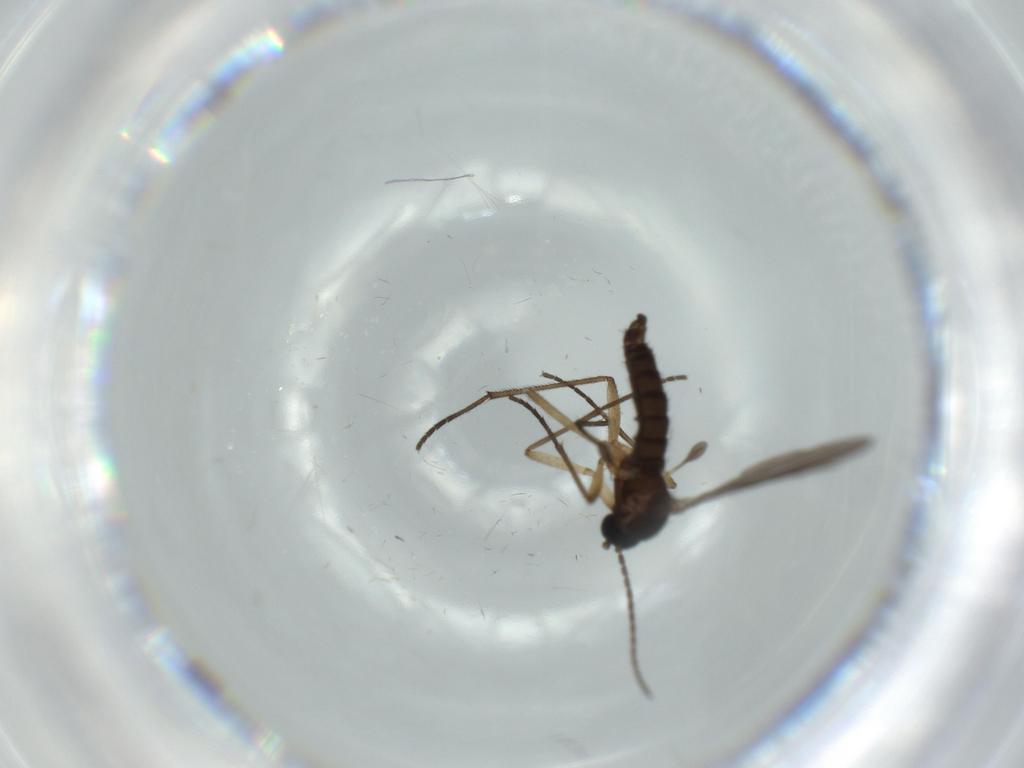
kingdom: Animalia
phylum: Arthropoda
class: Insecta
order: Diptera
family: Sciaridae
